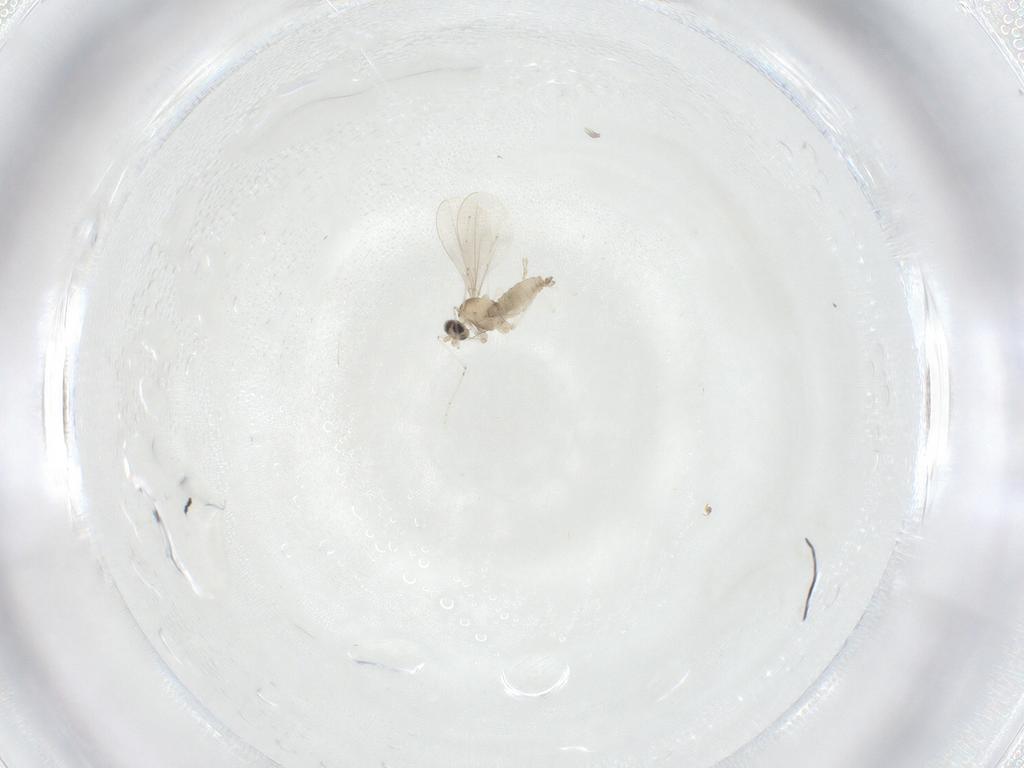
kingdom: Animalia
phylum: Arthropoda
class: Insecta
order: Diptera
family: Cecidomyiidae
